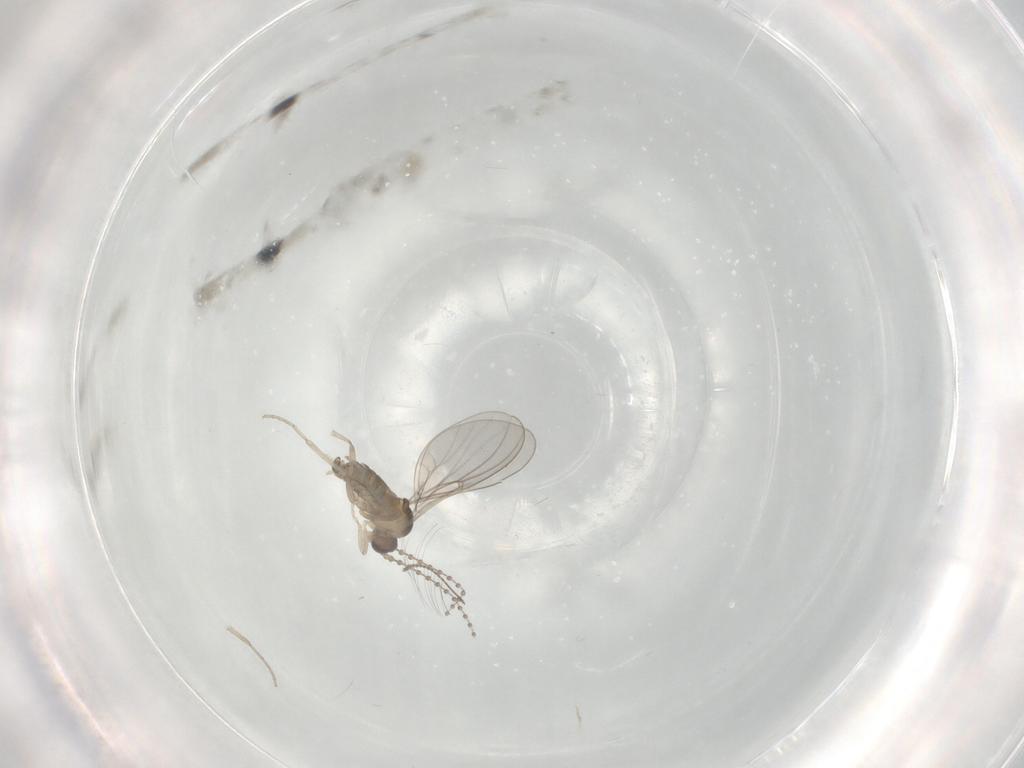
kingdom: Animalia
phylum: Arthropoda
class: Insecta
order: Diptera
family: Cecidomyiidae
